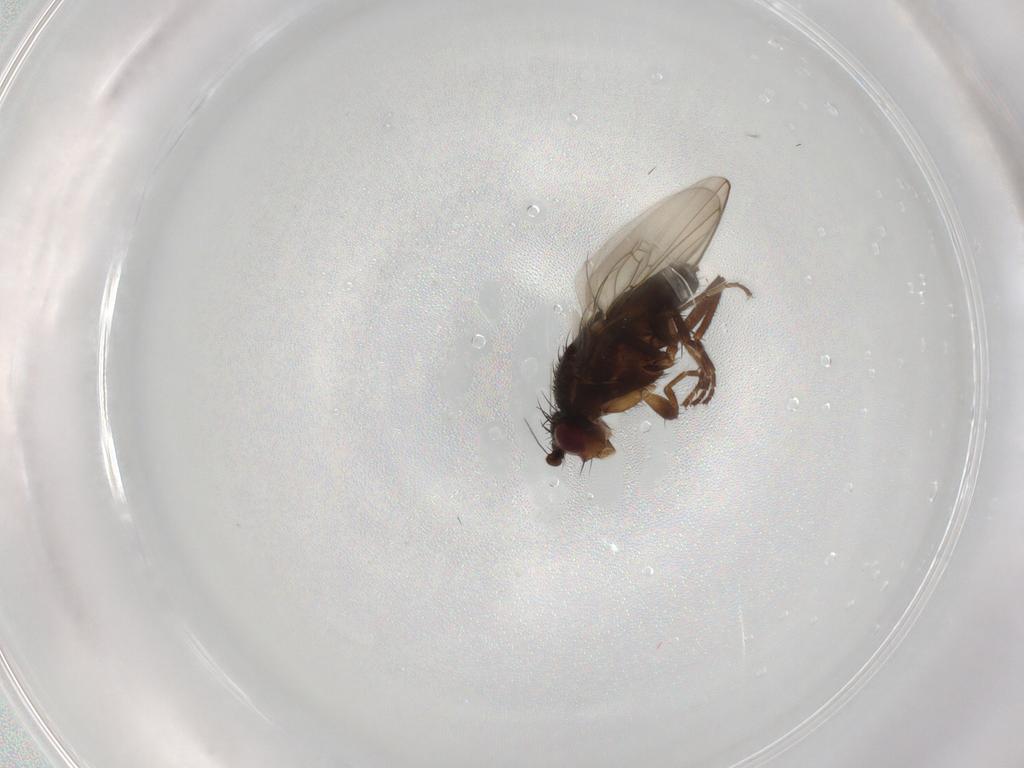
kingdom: Animalia
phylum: Arthropoda
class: Insecta
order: Diptera
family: Sphaeroceridae
